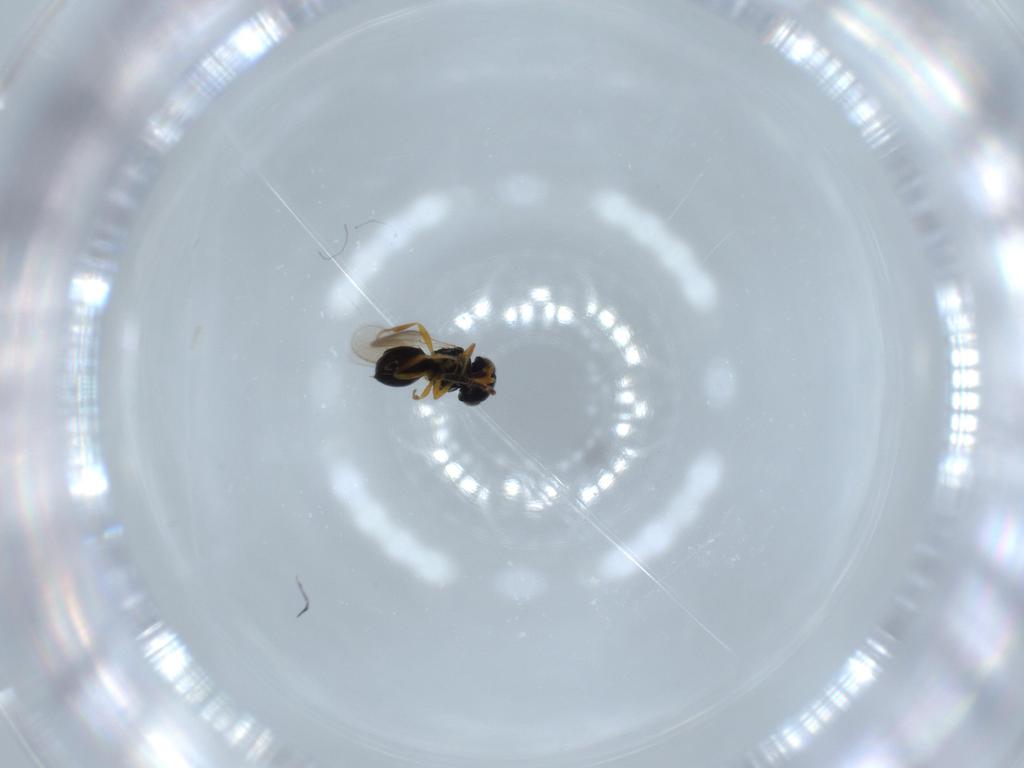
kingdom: Animalia
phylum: Arthropoda
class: Insecta
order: Hymenoptera
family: Scelionidae
